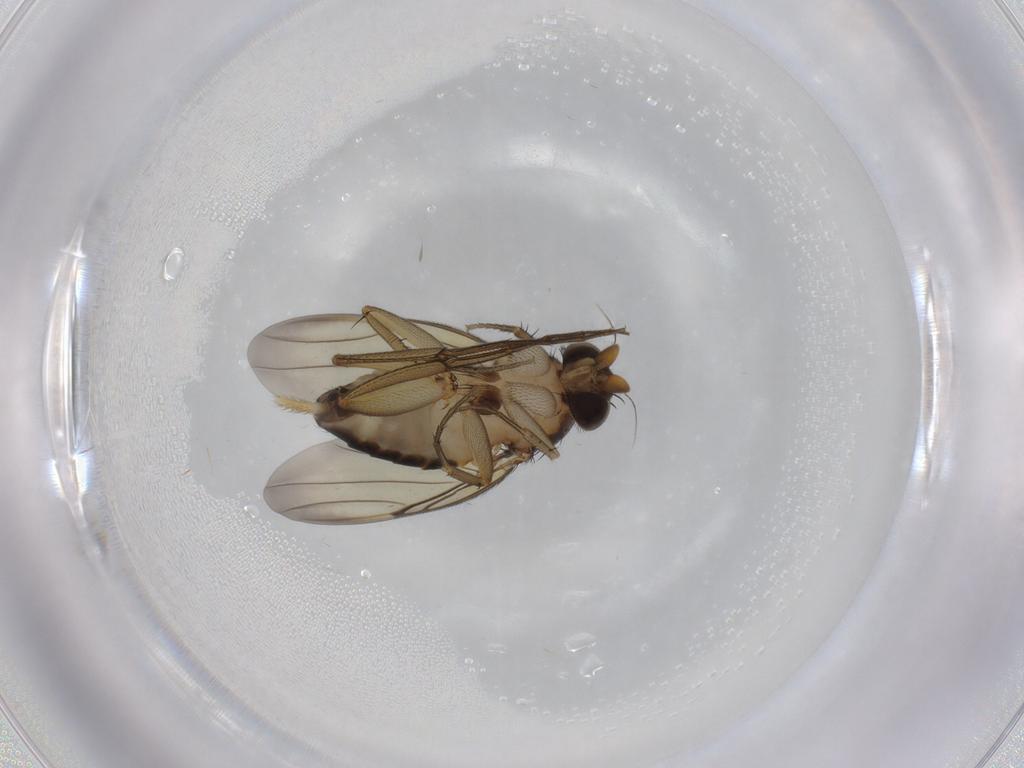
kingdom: Animalia
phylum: Arthropoda
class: Insecta
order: Diptera
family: Phoridae
